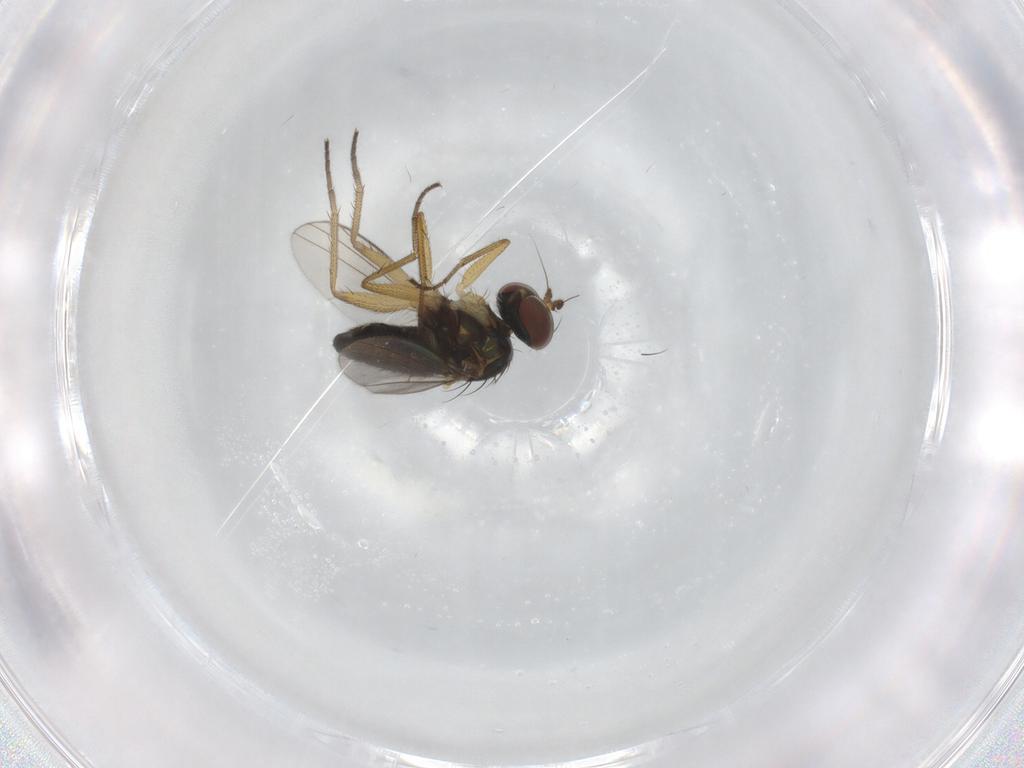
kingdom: Animalia
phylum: Arthropoda
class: Insecta
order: Diptera
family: Dolichopodidae
